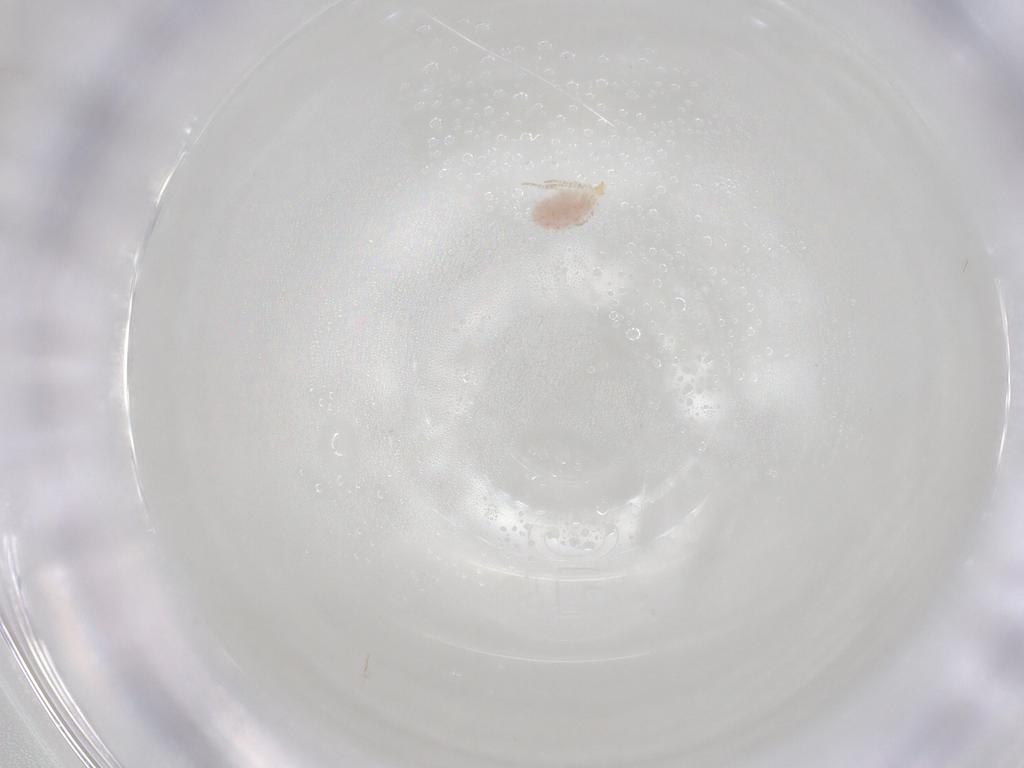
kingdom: Animalia
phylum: Arthropoda
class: Arachnida
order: Trombidiformes
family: Erythraeidae
